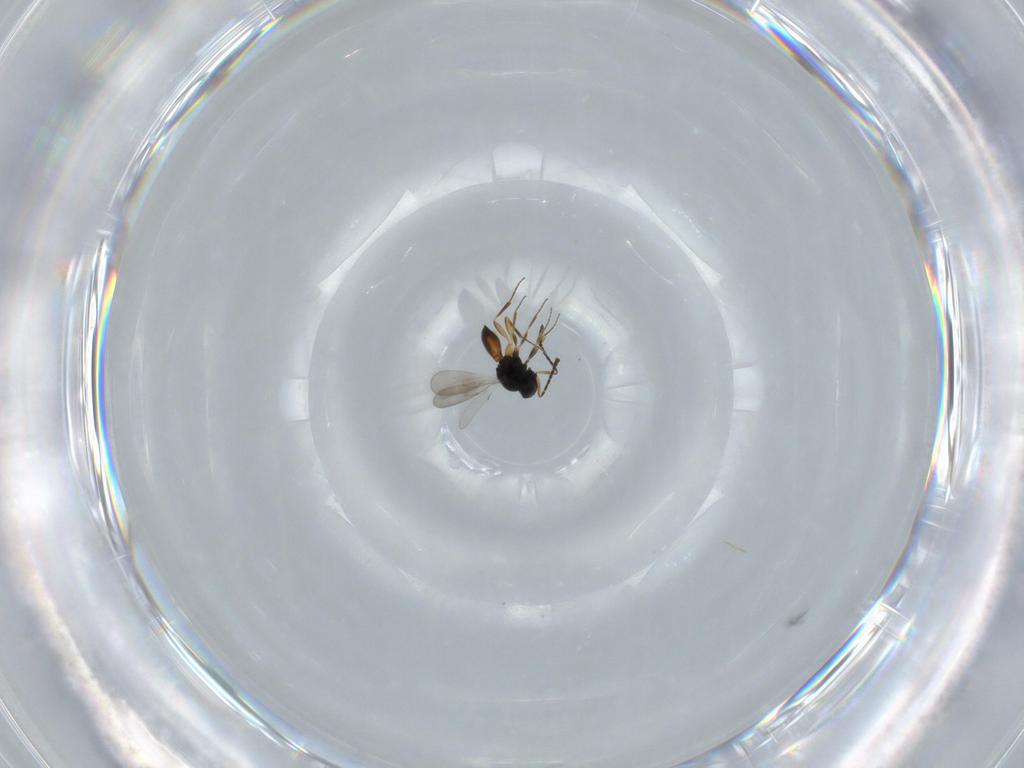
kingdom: Animalia
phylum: Arthropoda
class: Insecta
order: Hymenoptera
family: Scelionidae
